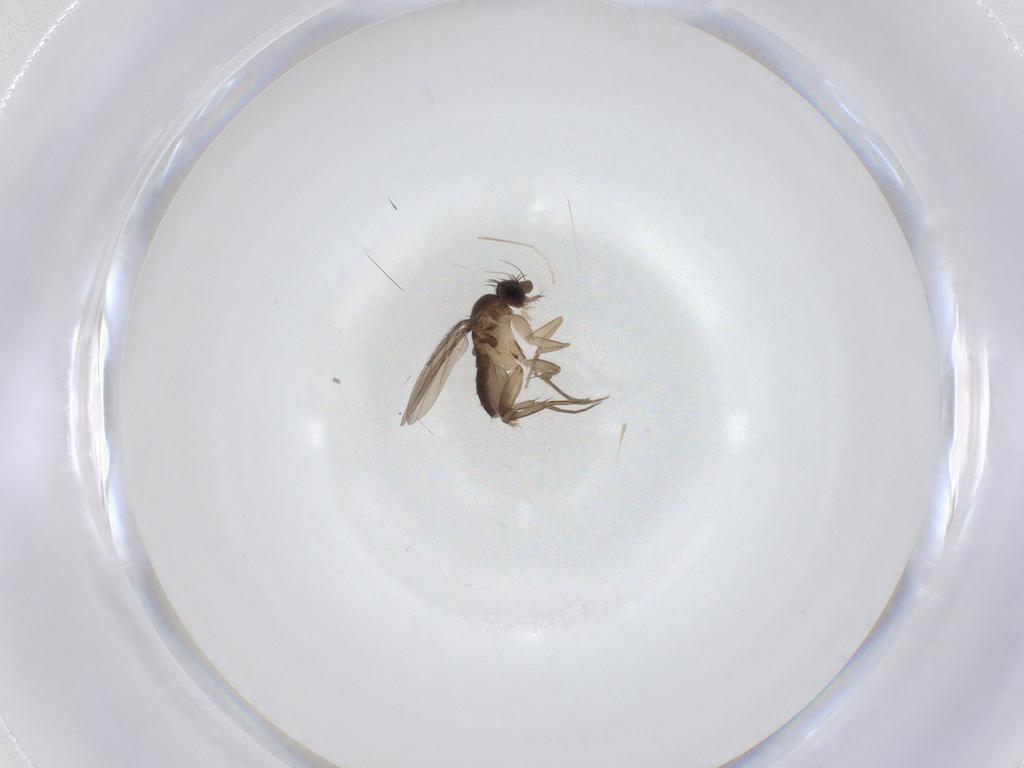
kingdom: Animalia
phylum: Arthropoda
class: Insecta
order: Diptera
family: Phoridae
